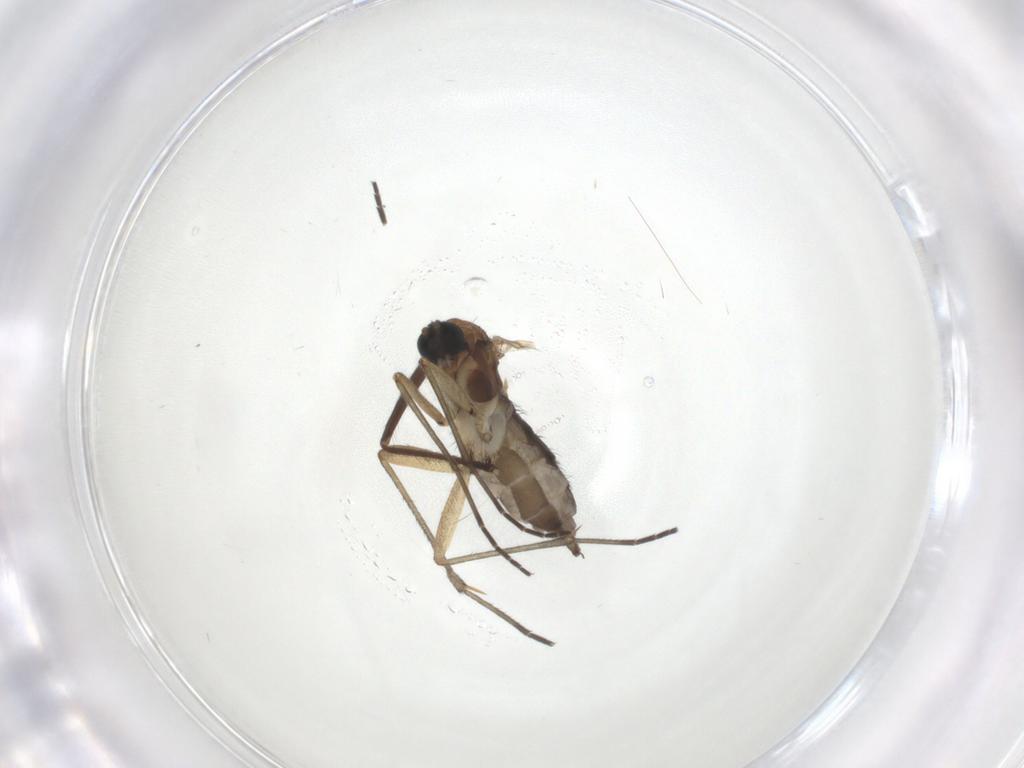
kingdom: Animalia
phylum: Arthropoda
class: Insecta
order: Diptera
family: Sciaridae
